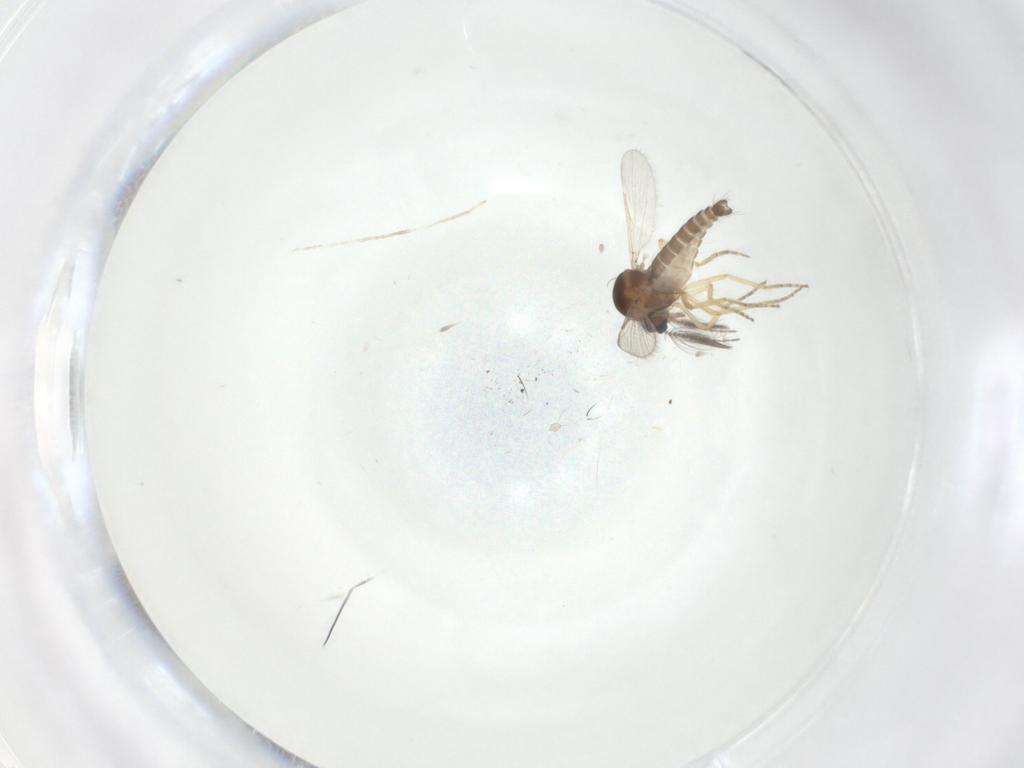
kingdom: Animalia
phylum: Arthropoda
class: Insecta
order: Diptera
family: Ceratopogonidae
